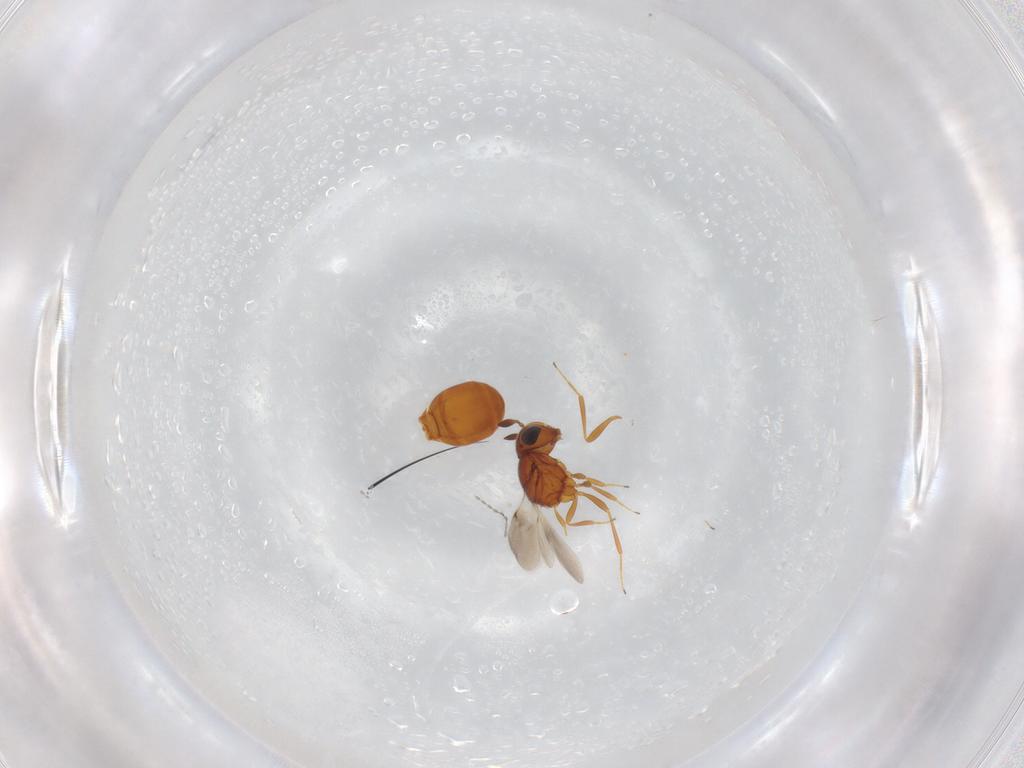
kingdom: Animalia
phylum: Arthropoda
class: Insecta
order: Hymenoptera
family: Scelionidae
